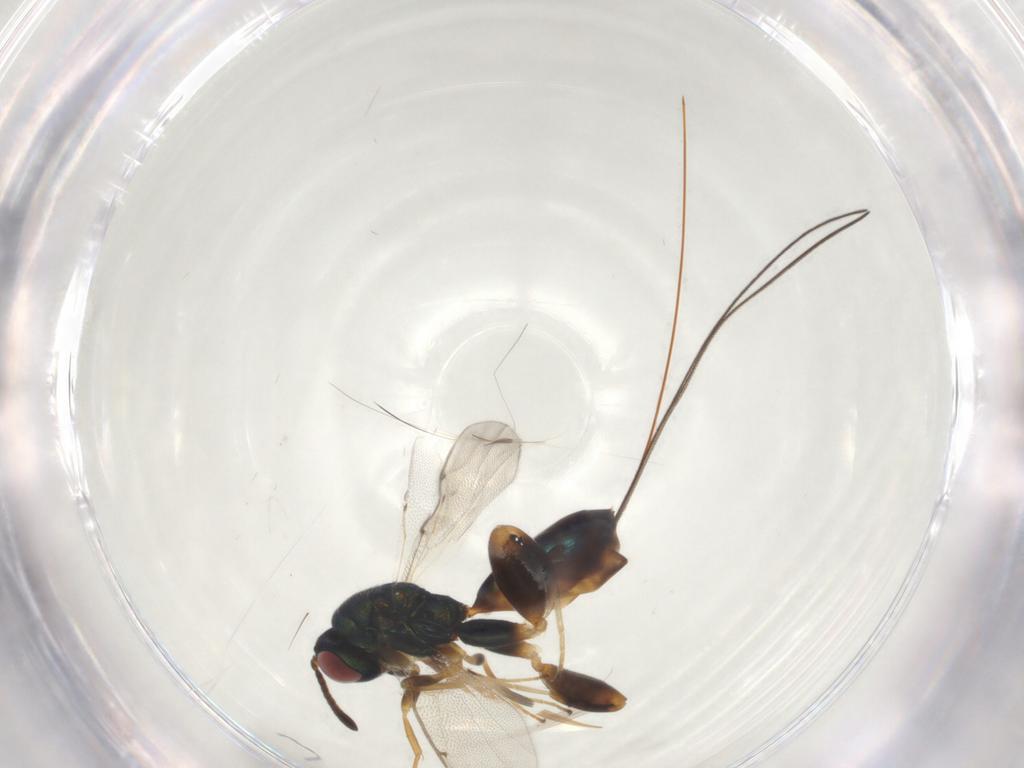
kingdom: Animalia
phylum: Arthropoda
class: Insecta
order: Hymenoptera
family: Torymidae
